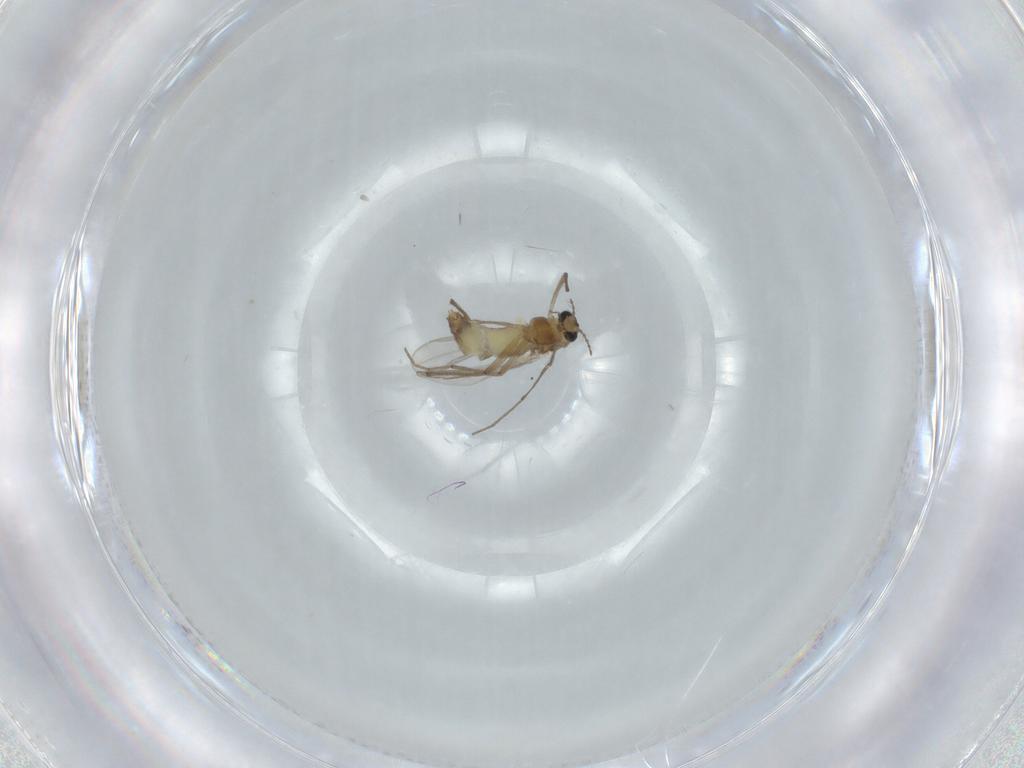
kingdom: Animalia
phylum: Arthropoda
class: Insecta
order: Diptera
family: Chironomidae
